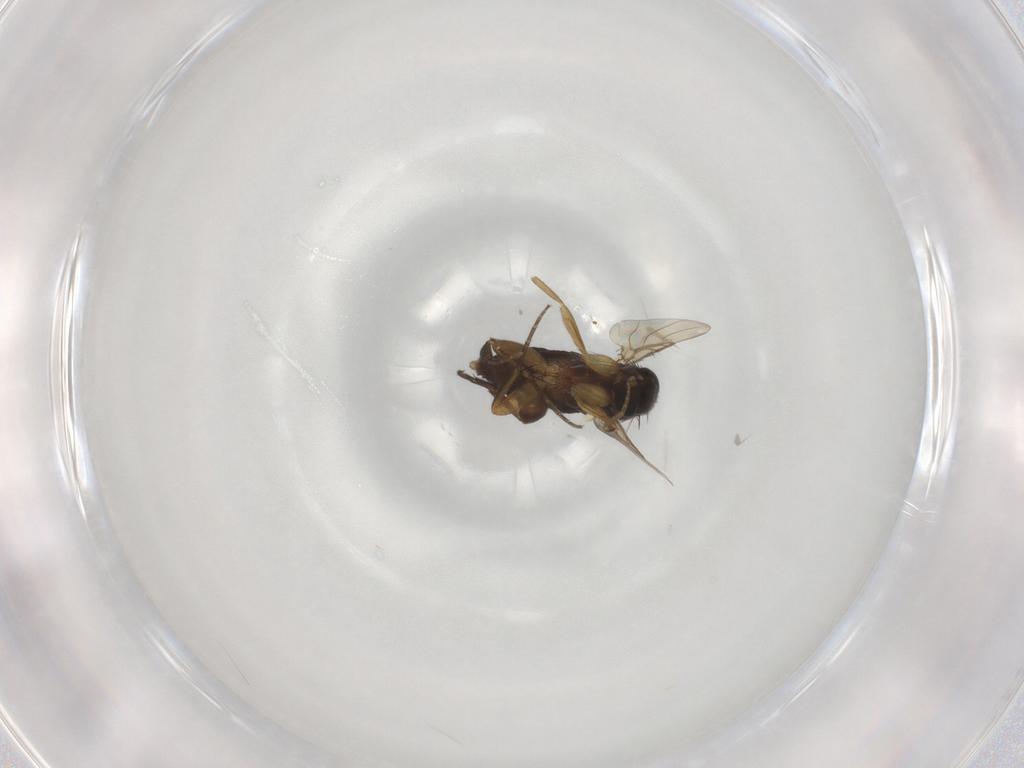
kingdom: Animalia
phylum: Arthropoda
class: Insecta
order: Diptera
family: Phoridae
